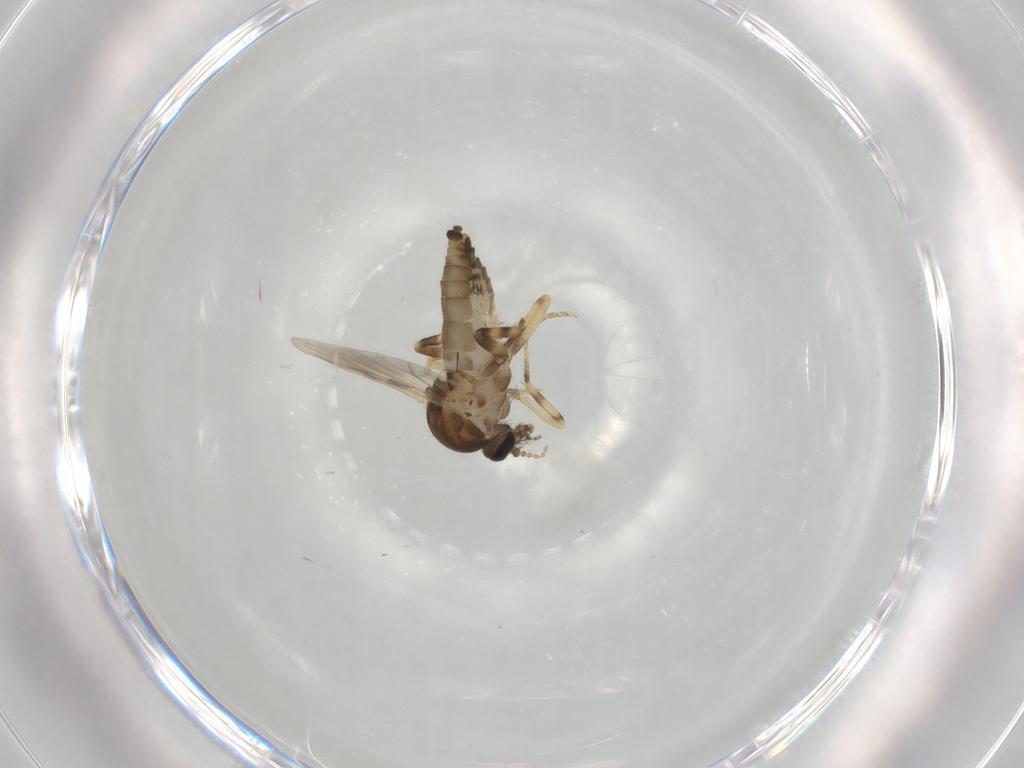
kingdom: Animalia
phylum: Arthropoda
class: Insecta
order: Diptera
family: Ceratopogonidae
